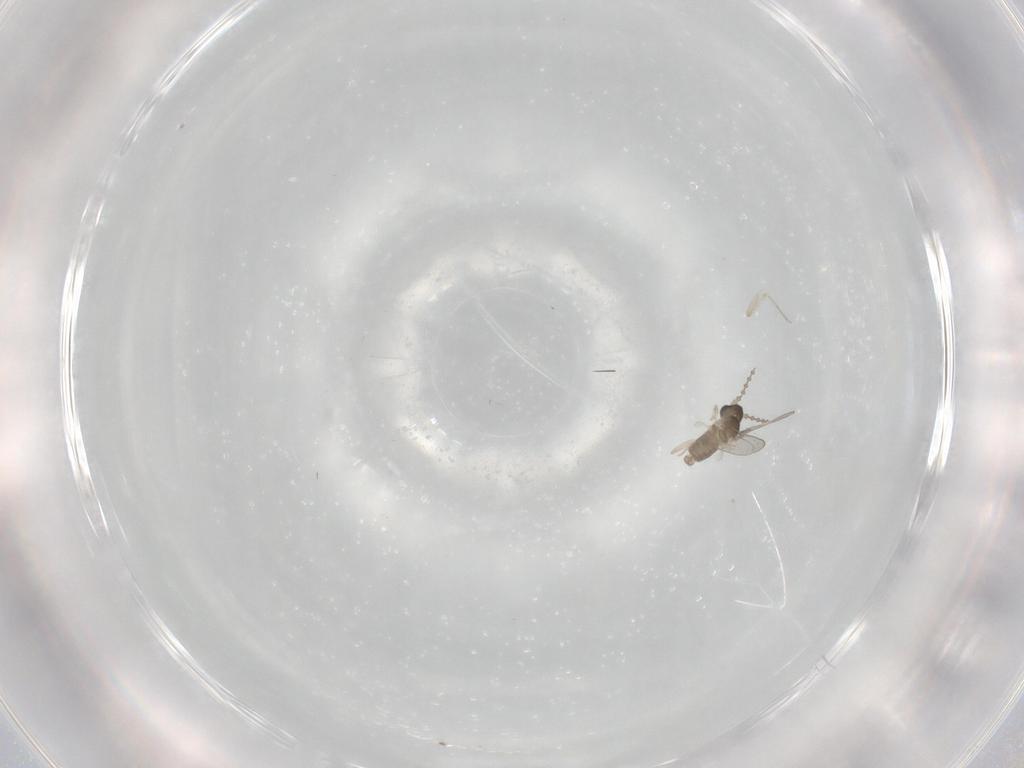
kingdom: Animalia
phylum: Arthropoda
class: Insecta
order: Diptera
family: Cecidomyiidae
